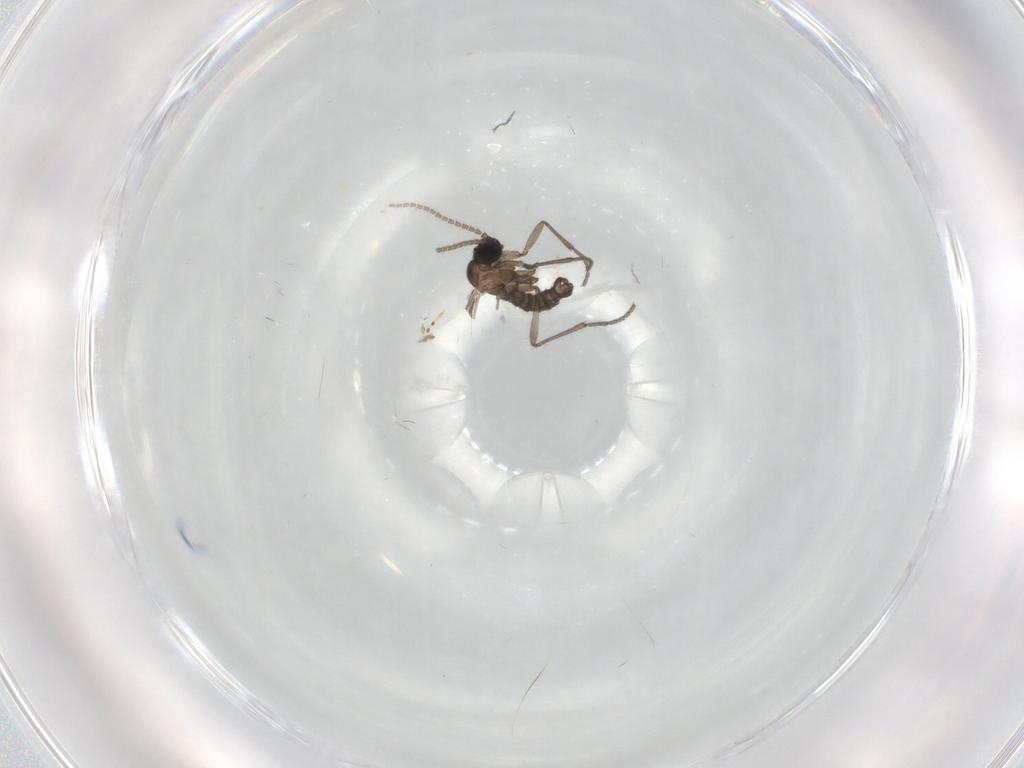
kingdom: Animalia
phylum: Arthropoda
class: Insecta
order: Diptera
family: Sciaridae
